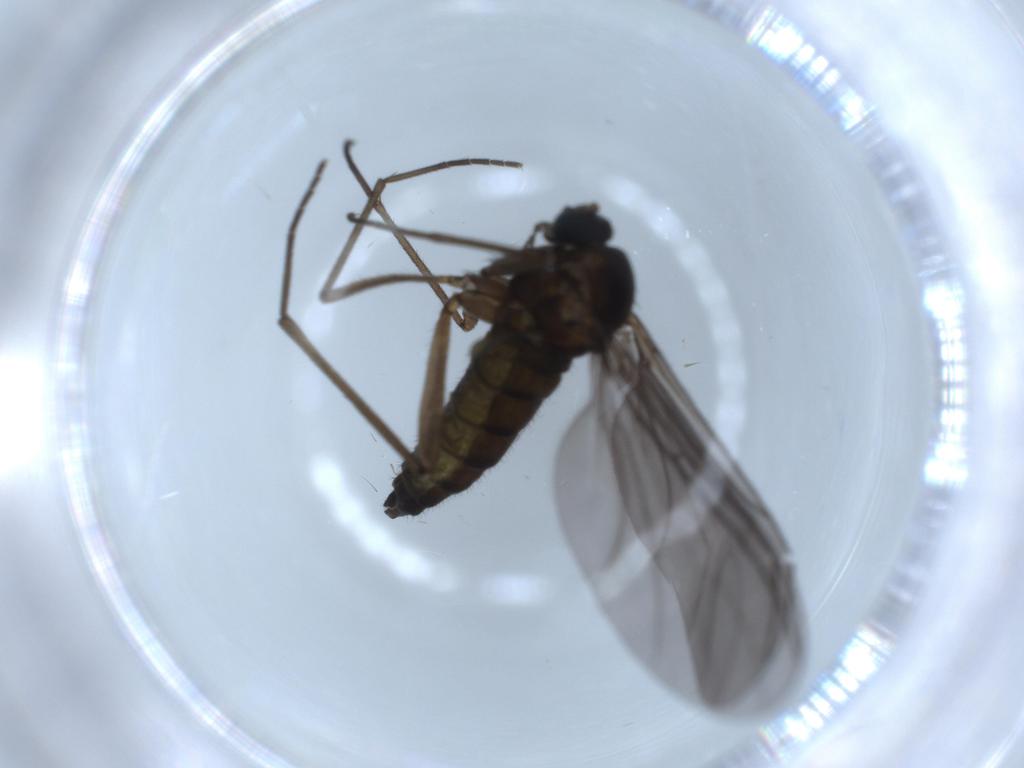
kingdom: Animalia
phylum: Arthropoda
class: Insecta
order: Diptera
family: Sciaridae
